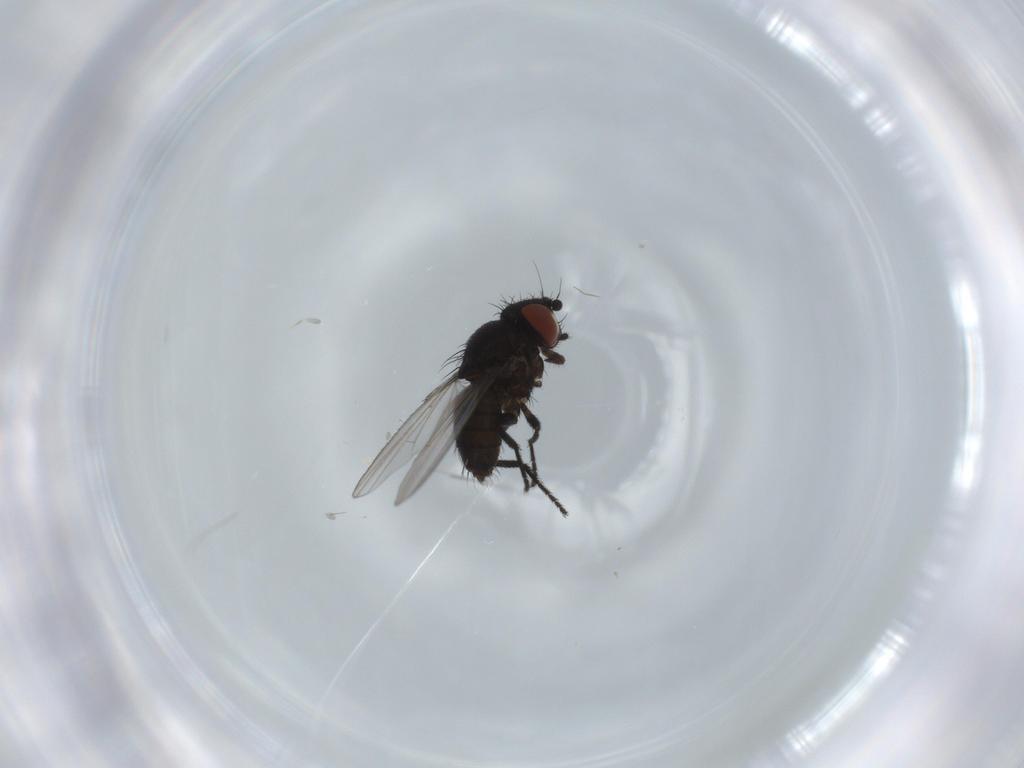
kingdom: Animalia
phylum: Arthropoda
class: Insecta
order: Diptera
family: Milichiidae
